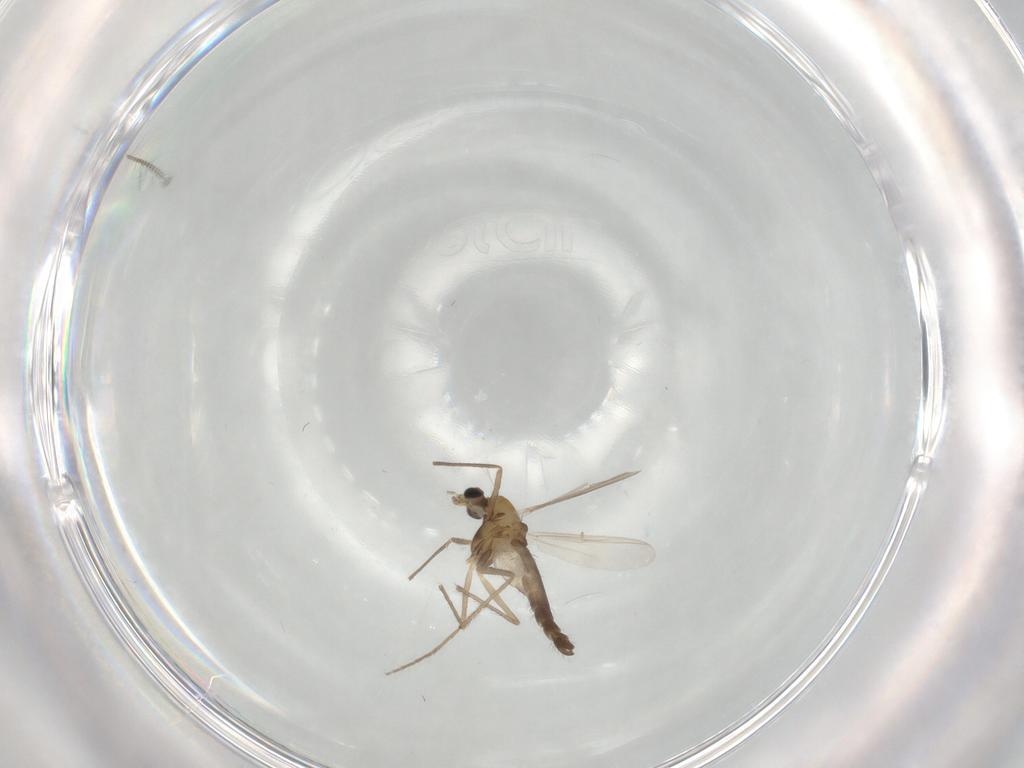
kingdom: Animalia
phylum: Arthropoda
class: Insecta
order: Diptera
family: Chironomidae
